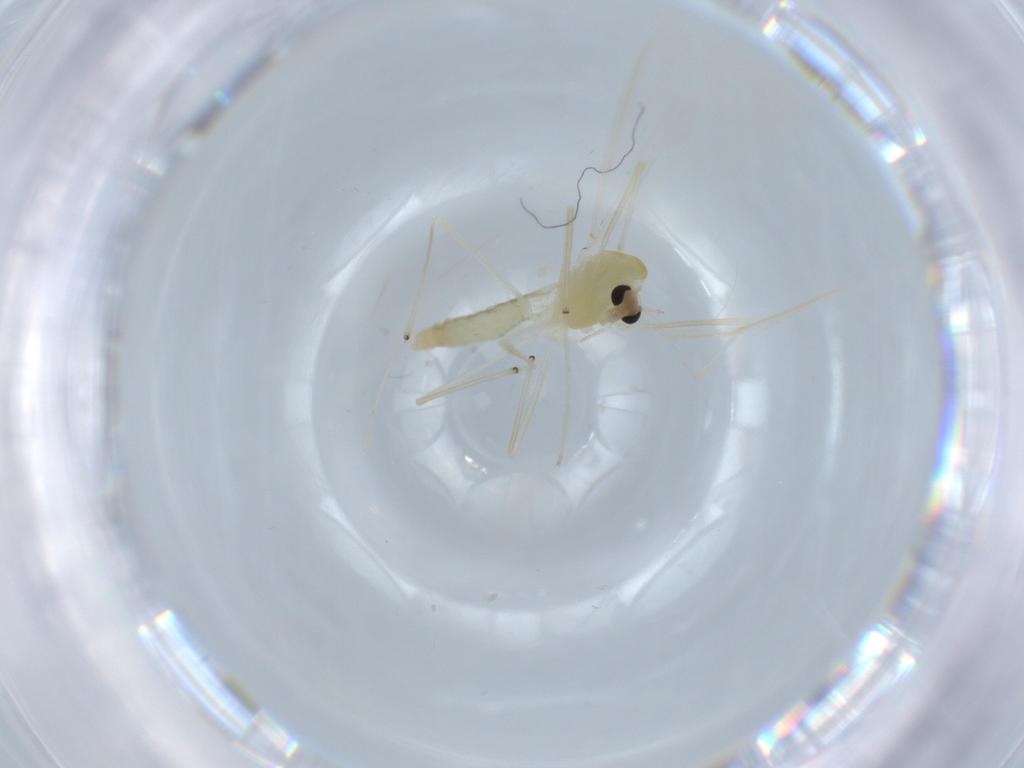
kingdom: Animalia
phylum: Arthropoda
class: Insecta
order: Diptera
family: Chironomidae
